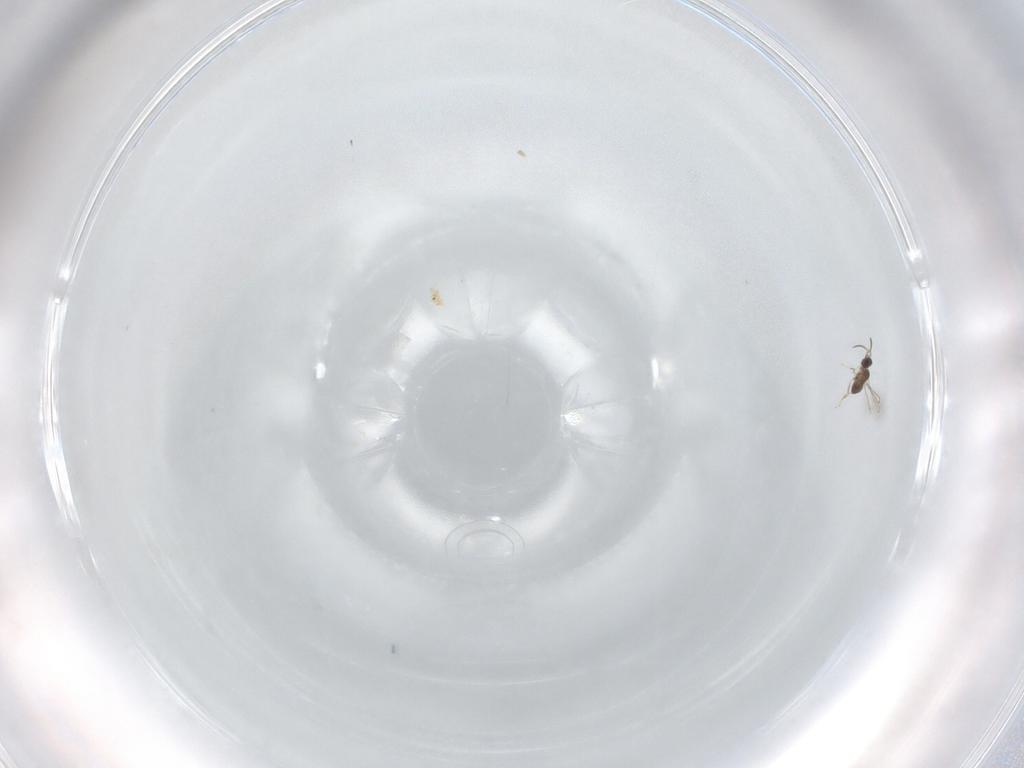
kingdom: Animalia
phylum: Arthropoda
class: Insecta
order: Hymenoptera
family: Mymaridae
